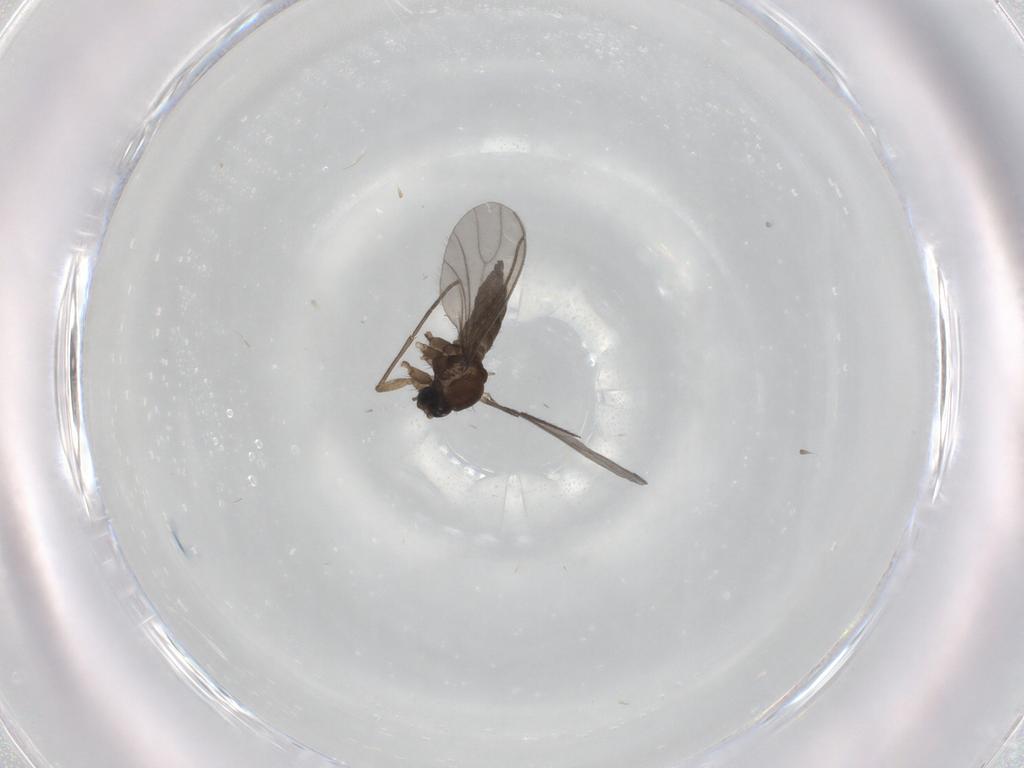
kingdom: Animalia
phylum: Arthropoda
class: Insecta
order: Diptera
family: Sciaridae
